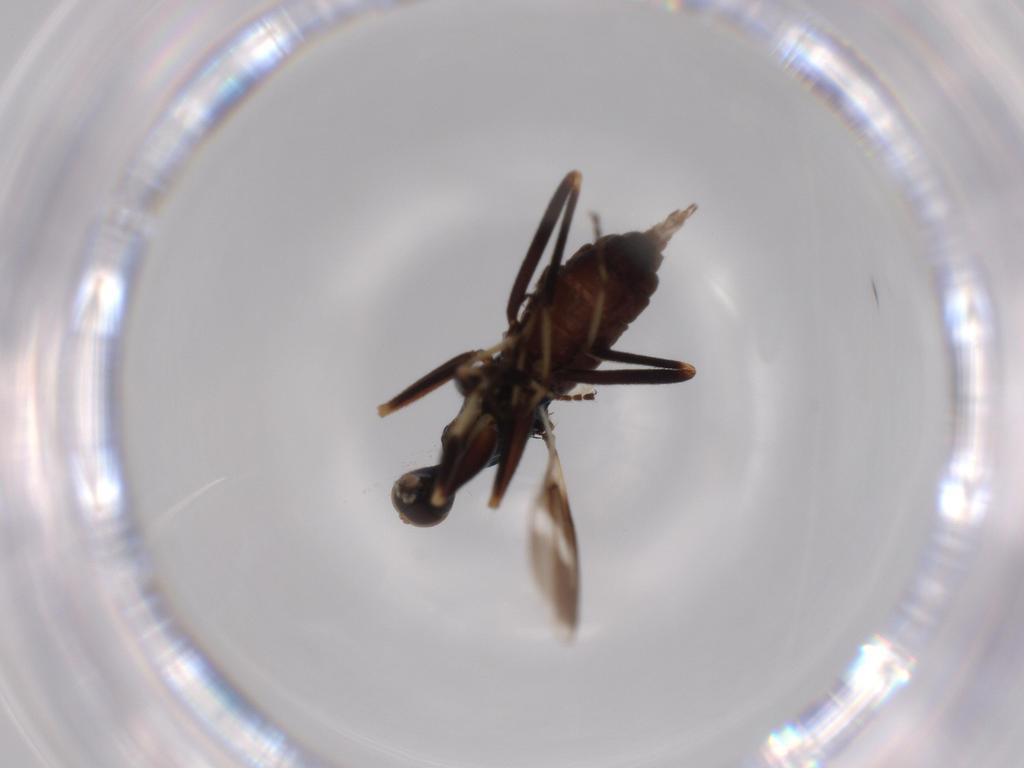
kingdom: Animalia
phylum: Arthropoda
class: Insecta
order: Diptera
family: Hybotidae
